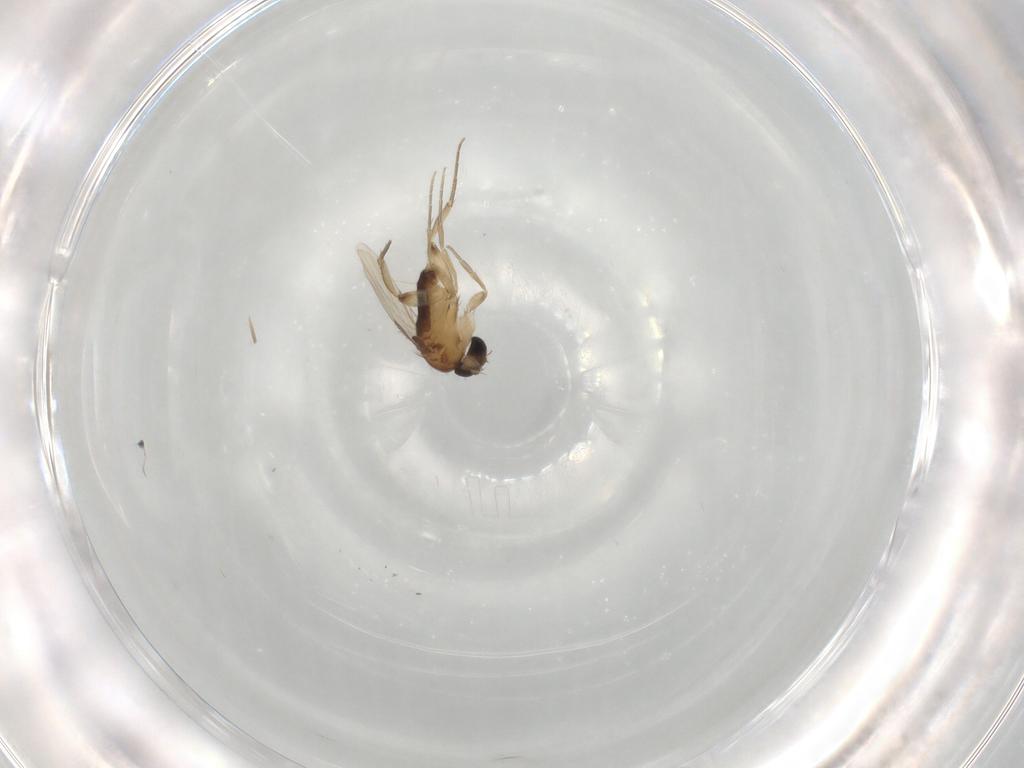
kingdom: Animalia
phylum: Arthropoda
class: Insecta
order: Diptera
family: Phoridae
